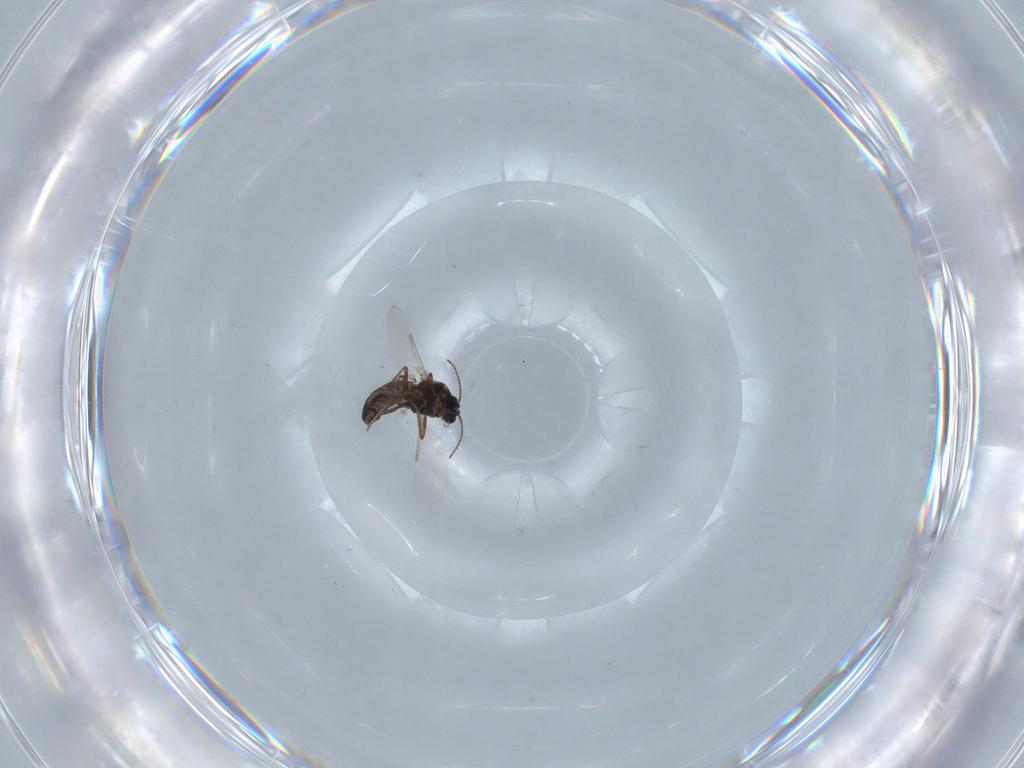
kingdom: Animalia
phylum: Arthropoda
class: Insecta
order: Diptera
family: Ceratopogonidae
